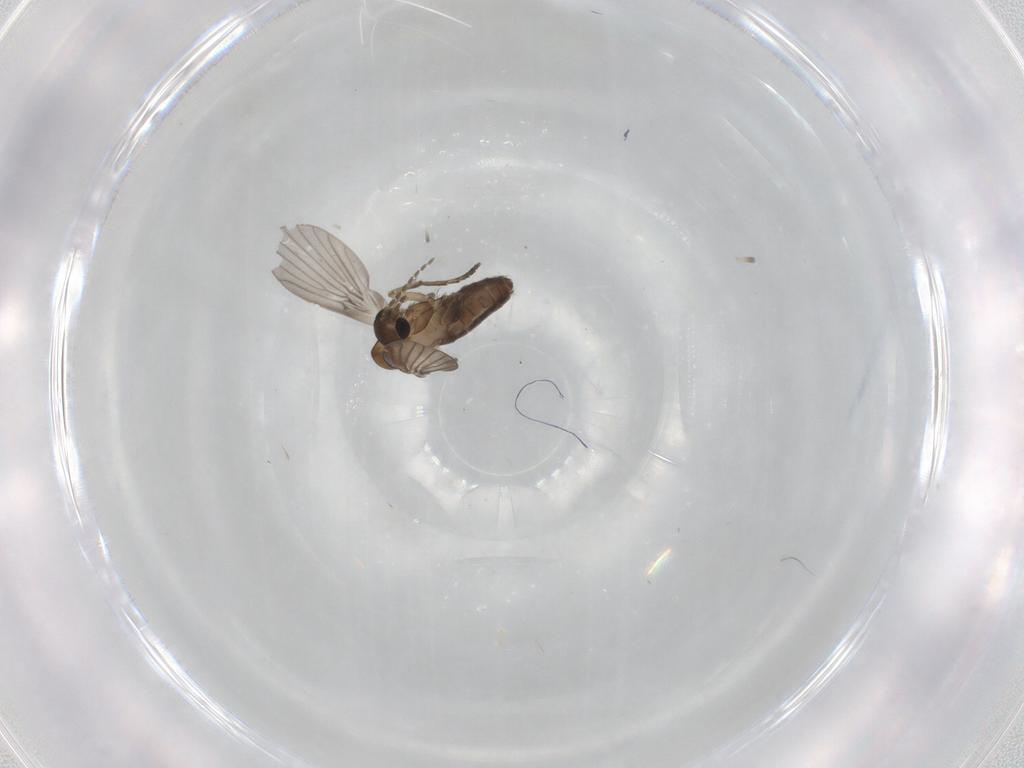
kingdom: Animalia
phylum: Arthropoda
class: Insecta
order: Diptera
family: Psychodidae
